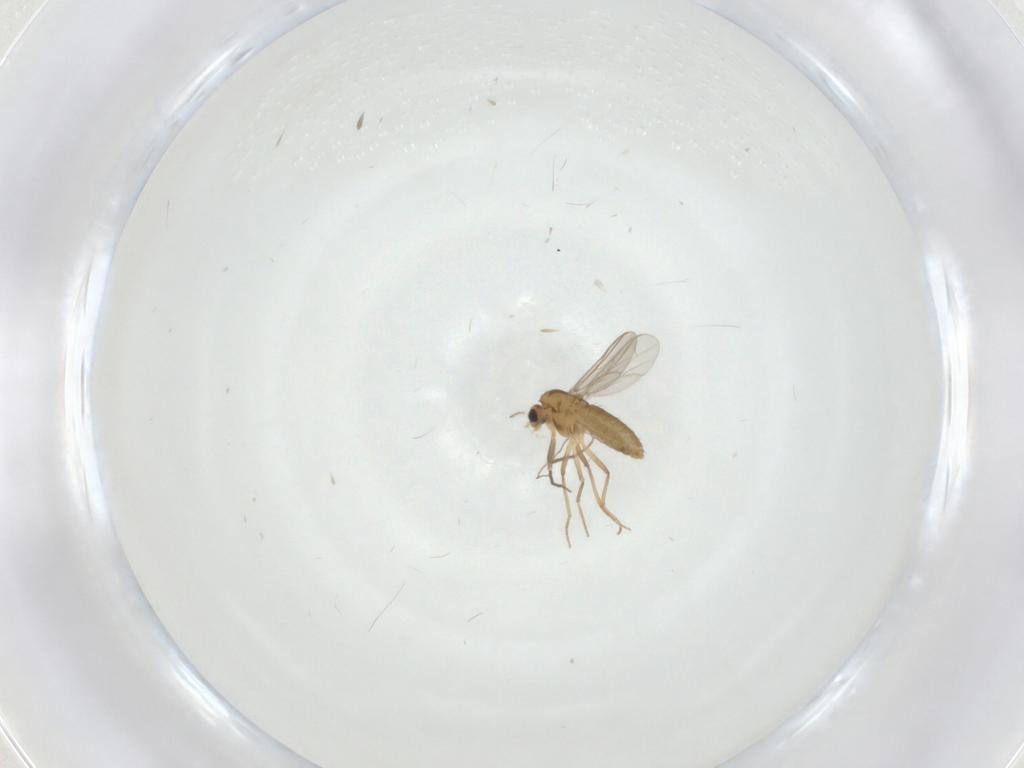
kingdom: Animalia
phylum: Arthropoda
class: Insecta
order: Diptera
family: Chironomidae
